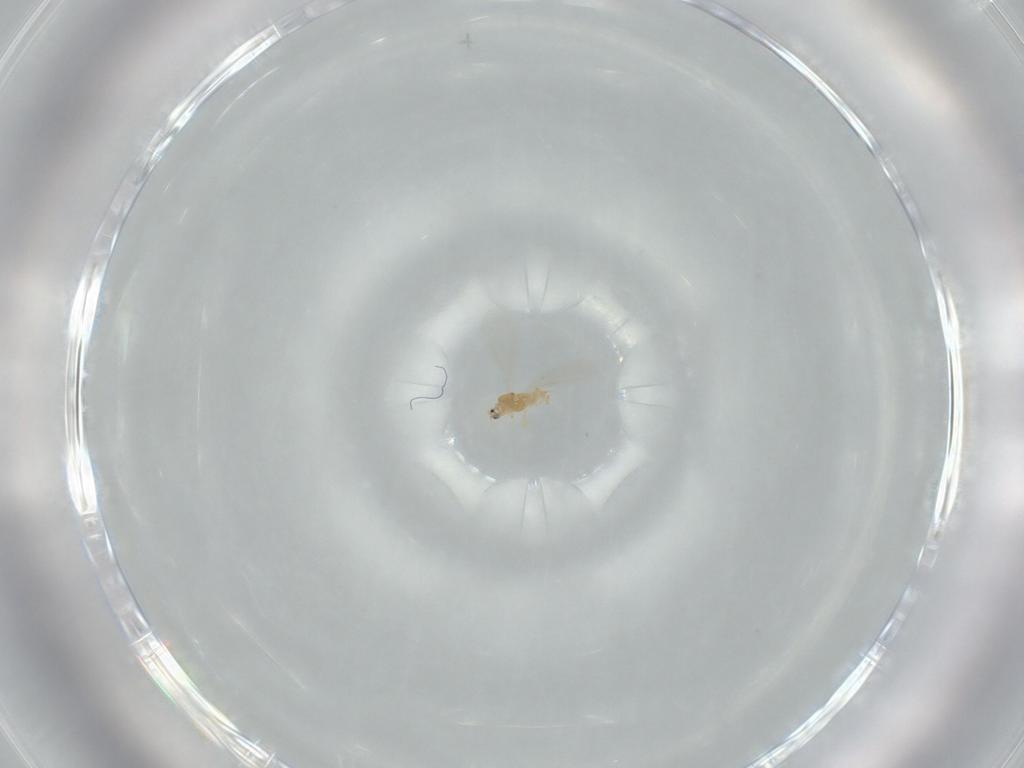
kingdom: Animalia
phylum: Arthropoda
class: Insecta
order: Hemiptera
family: Diaspididae
